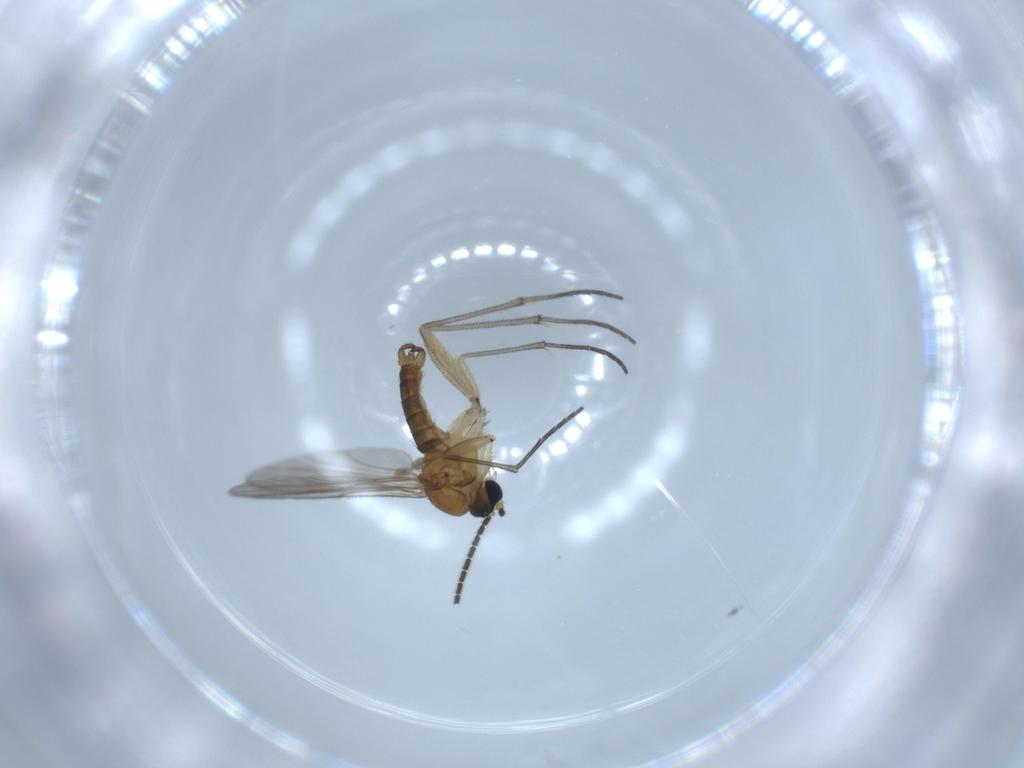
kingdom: Animalia
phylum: Arthropoda
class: Insecta
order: Diptera
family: Sciaridae
